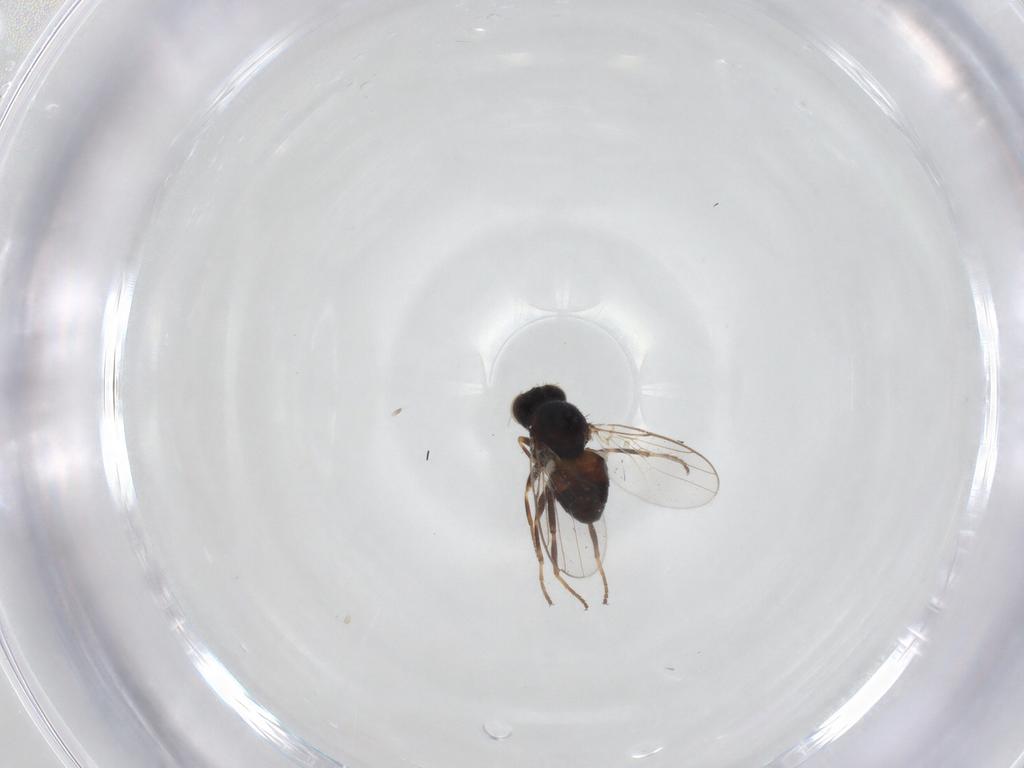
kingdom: Animalia
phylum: Arthropoda
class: Insecta
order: Diptera
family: Chloropidae
